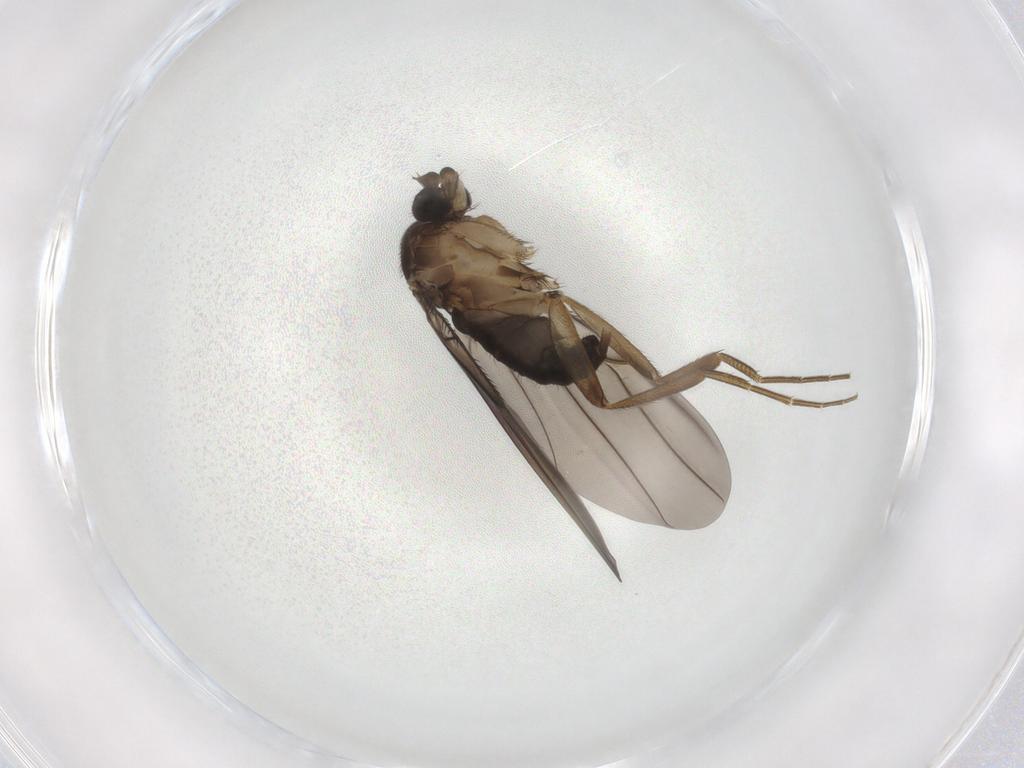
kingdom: Animalia
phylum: Arthropoda
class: Insecta
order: Diptera
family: Phoridae
